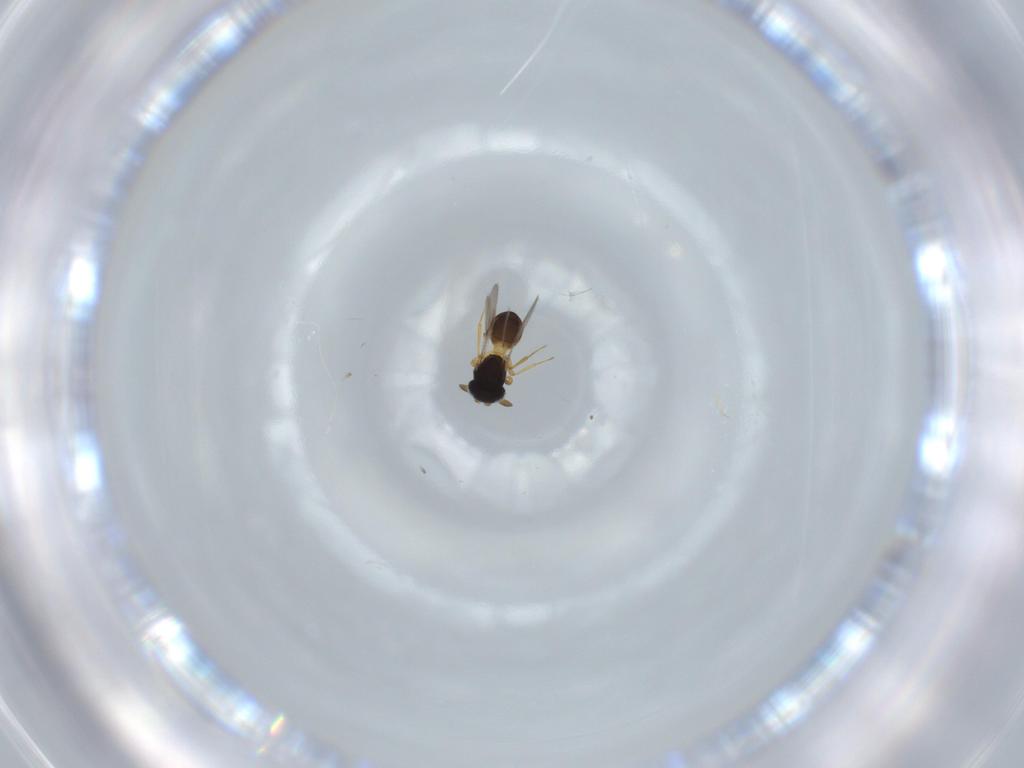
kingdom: Animalia
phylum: Arthropoda
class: Insecta
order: Hymenoptera
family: Scelionidae
